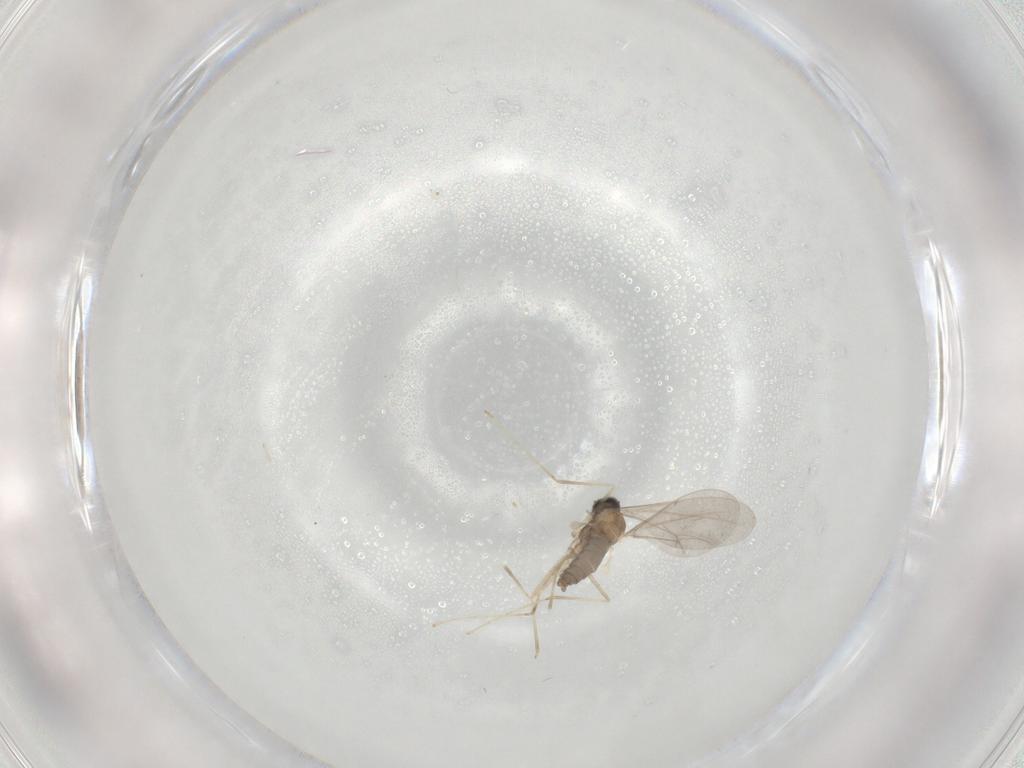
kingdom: Animalia
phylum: Arthropoda
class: Insecta
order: Diptera
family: Cecidomyiidae
